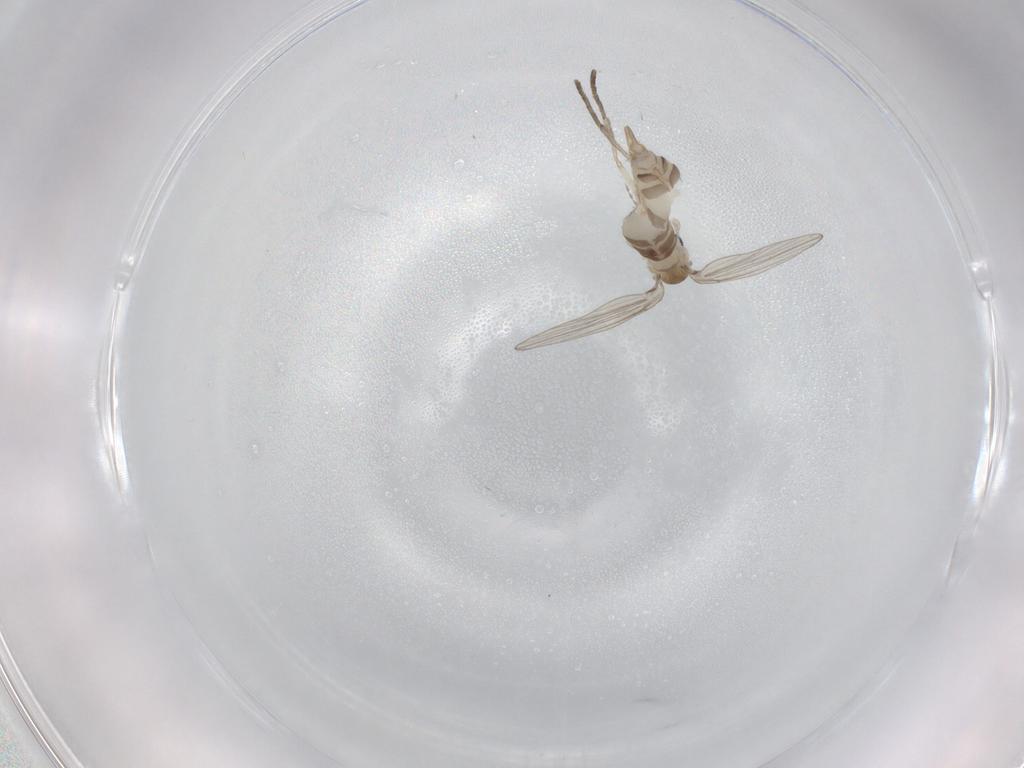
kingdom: Animalia
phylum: Arthropoda
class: Insecta
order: Diptera
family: Psychodidae
